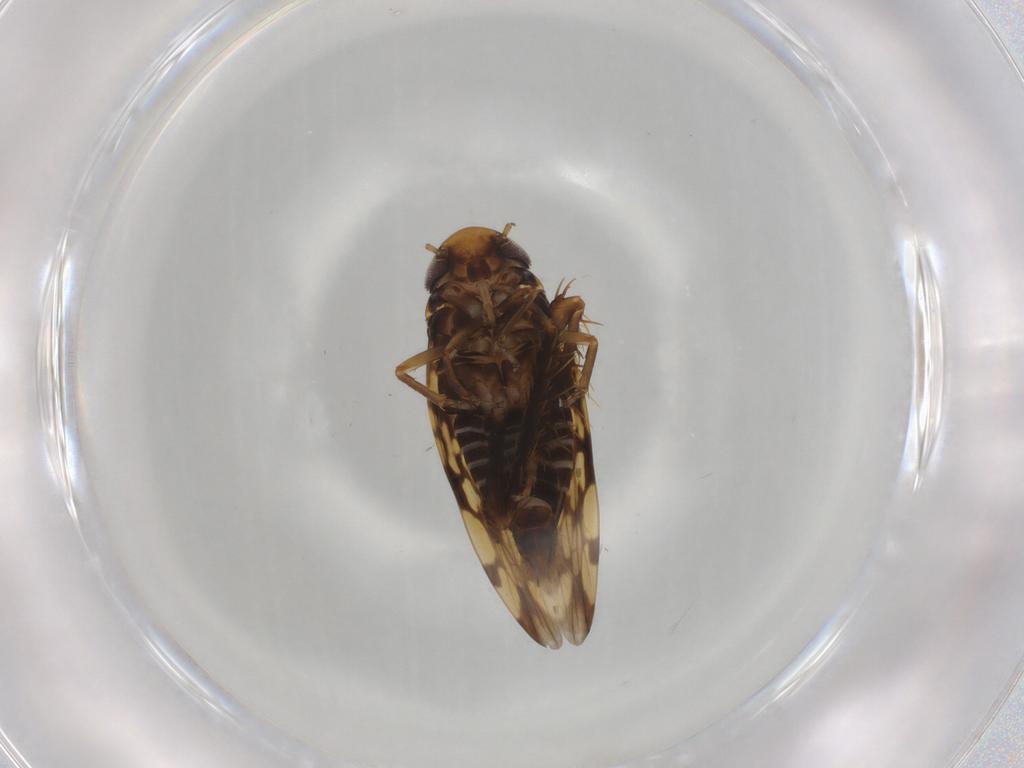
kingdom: Animalia
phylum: Arthropoda
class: Insecta
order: Hemiptera
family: Cicadellidae
